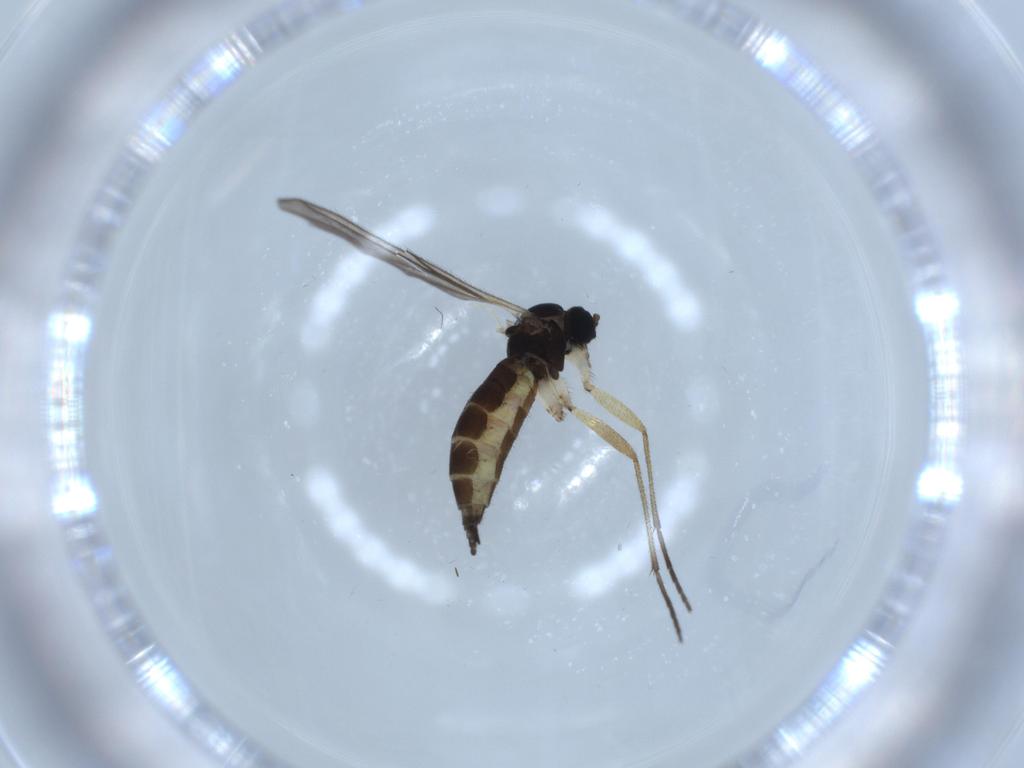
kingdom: Animalia
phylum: Arthropoda
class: Insecta
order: Diptera
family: Sciaridae
